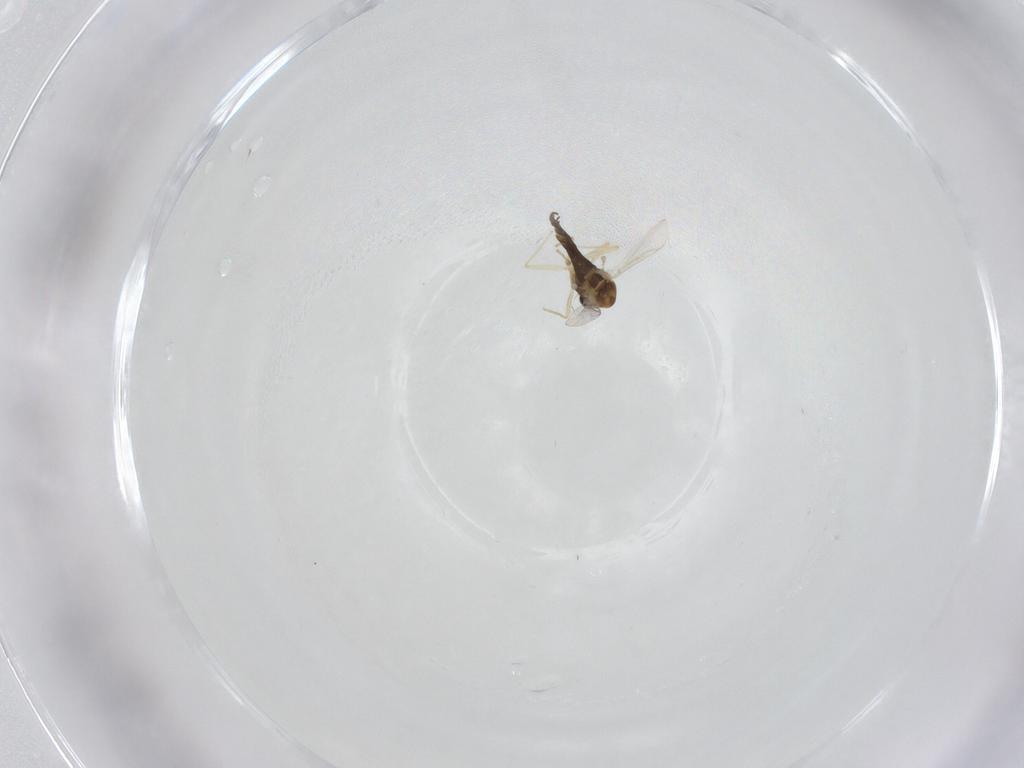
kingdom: Animalia
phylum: Arthropoda
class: Insecta
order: Diptera
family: Chironomidae
